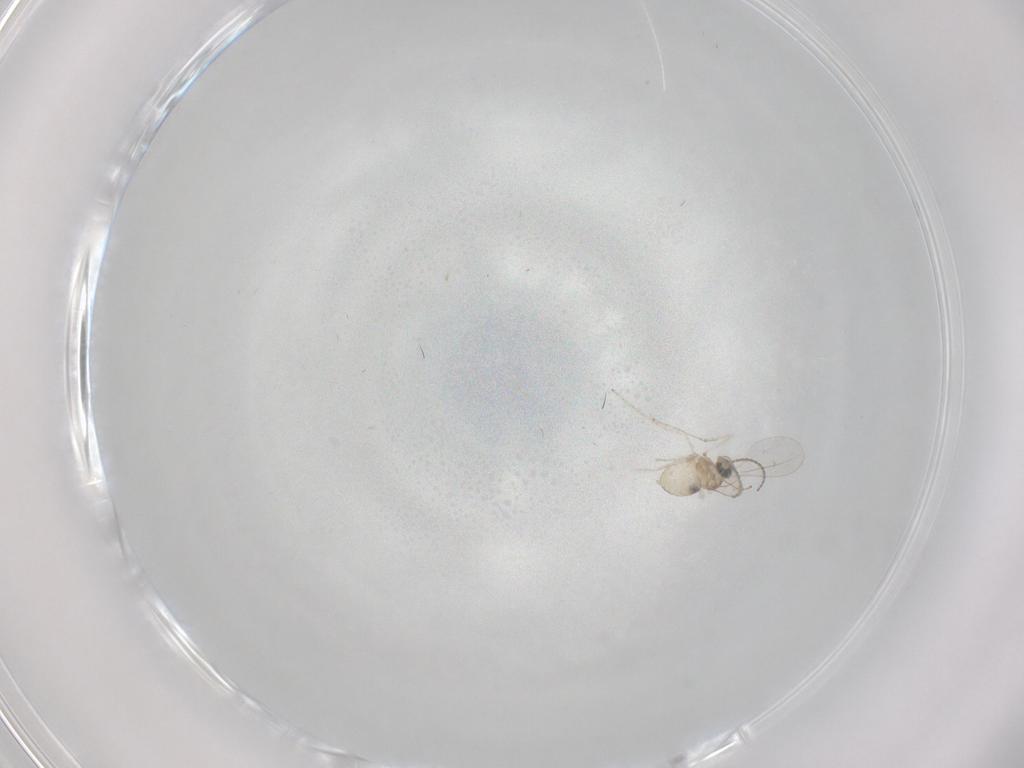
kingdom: Animalia
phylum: Arthropoda
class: Insecta
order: Diptera
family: Cecidomyiidae
